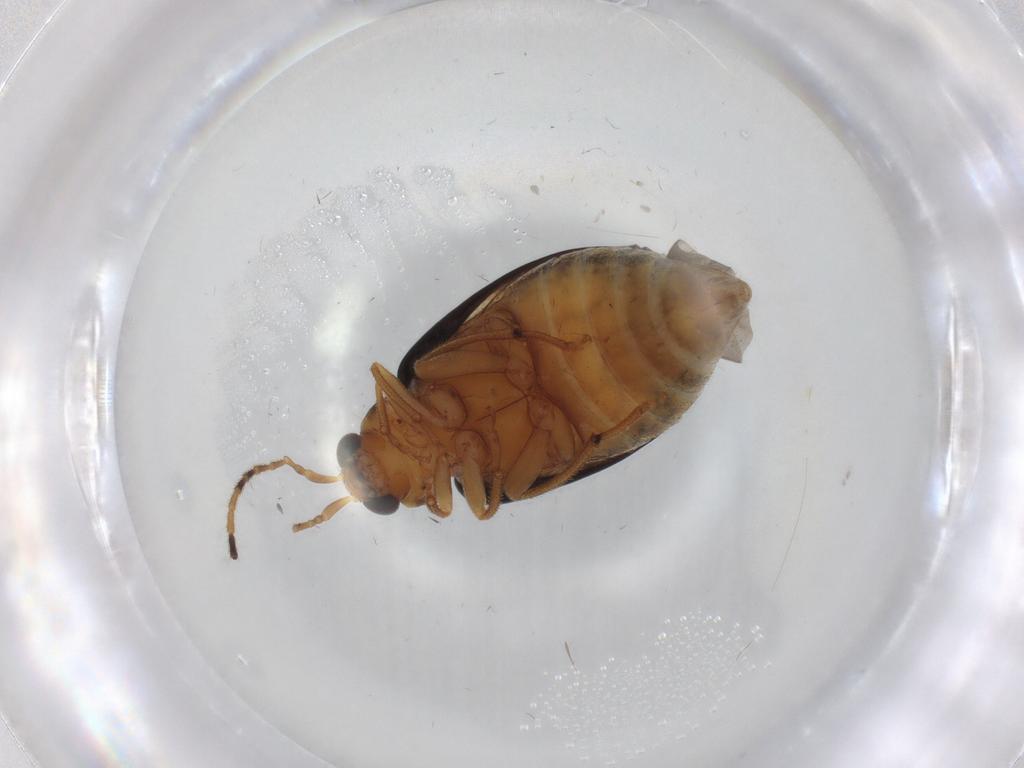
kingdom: Animalia
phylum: Arthropoda
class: Insecta
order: Coleoptera
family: Chrysomelidae
